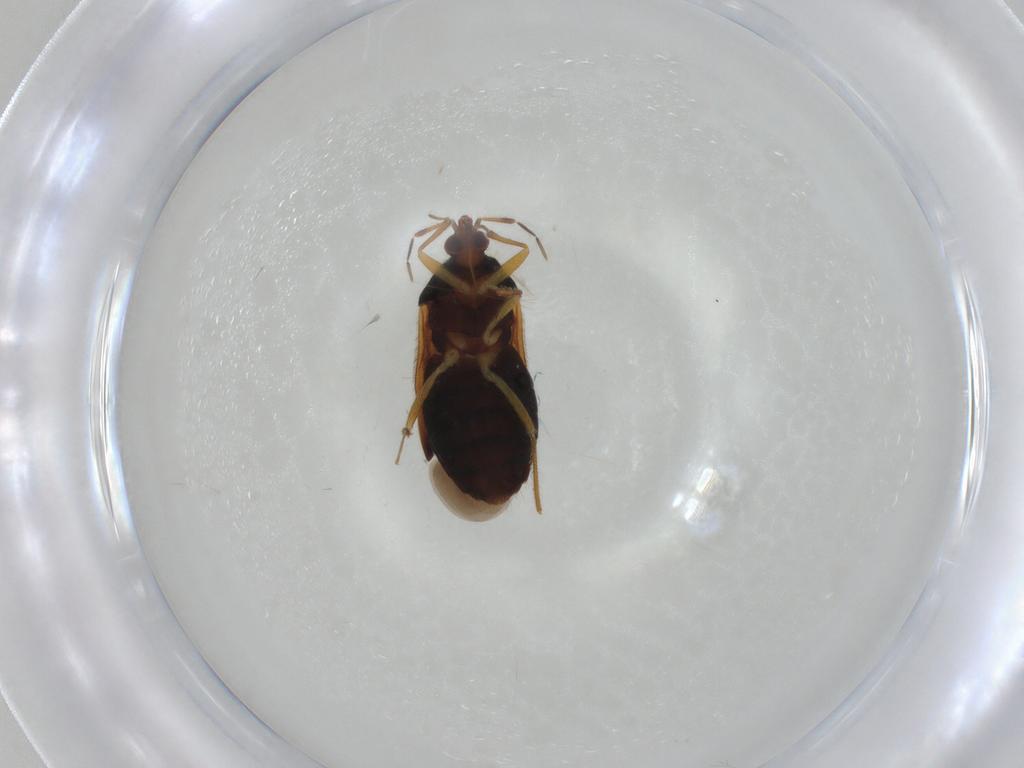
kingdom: Animalia
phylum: Arthropoda
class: Insecta
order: Hemiptera
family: Anthocoridae
